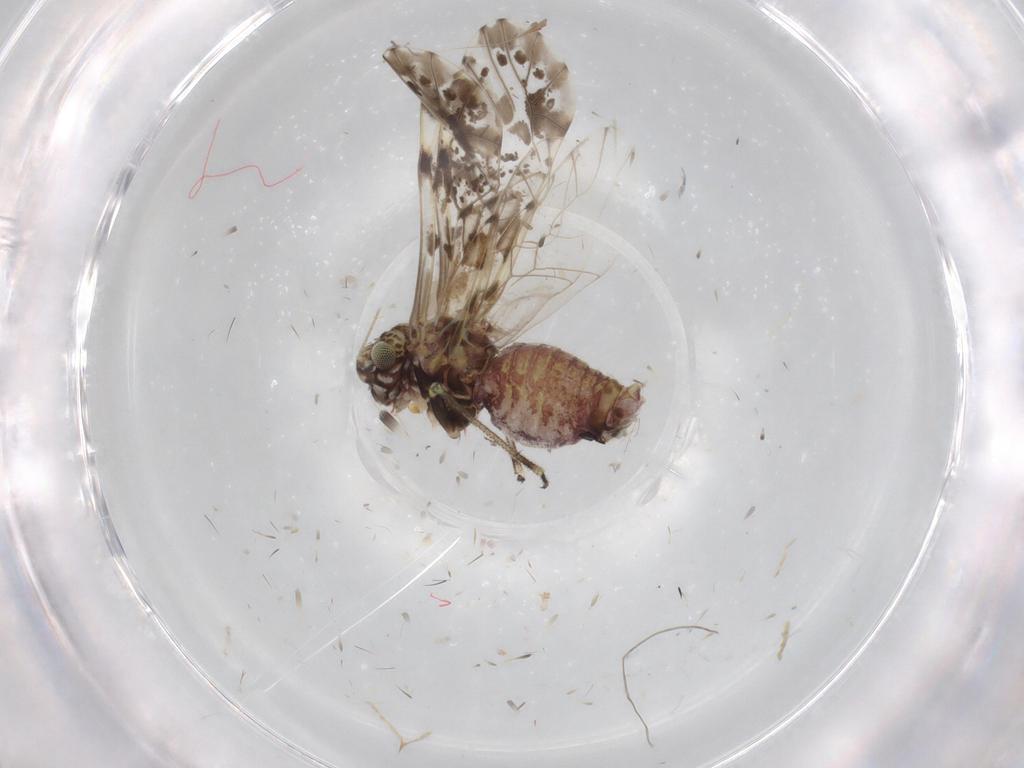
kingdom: Animalia
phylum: Arthropoda
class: Insecta
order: Psocodea
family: Psocidae
